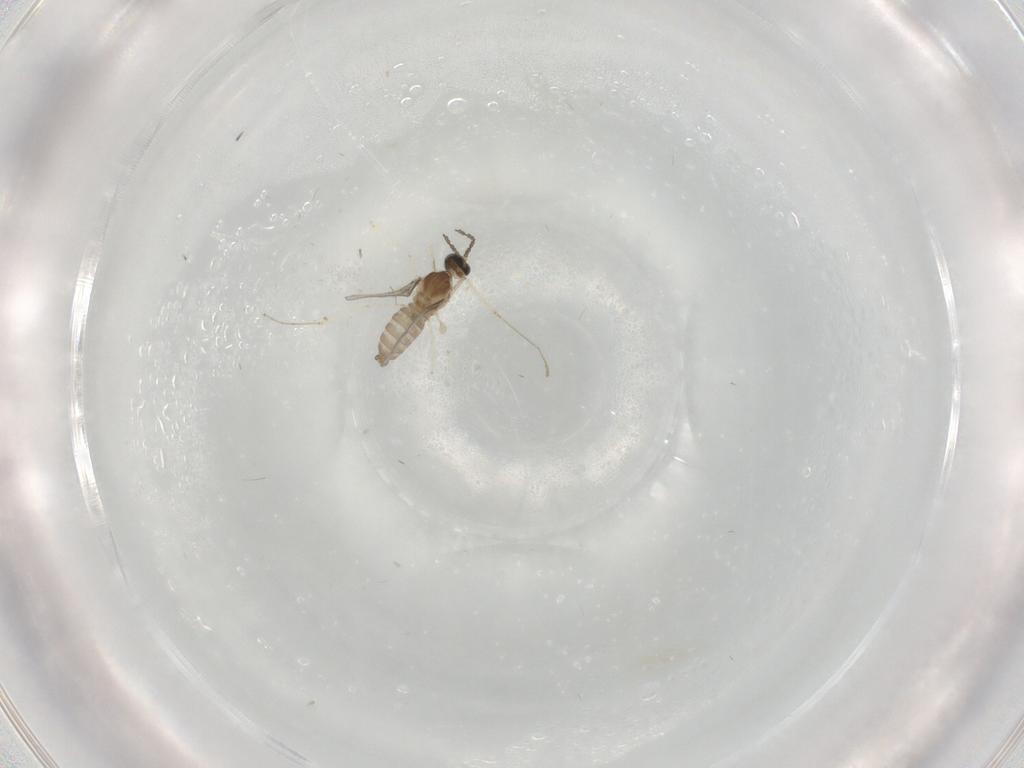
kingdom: Animalia
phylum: Arthropoda
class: Insecta
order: Diptera
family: Cecidomyiidae
